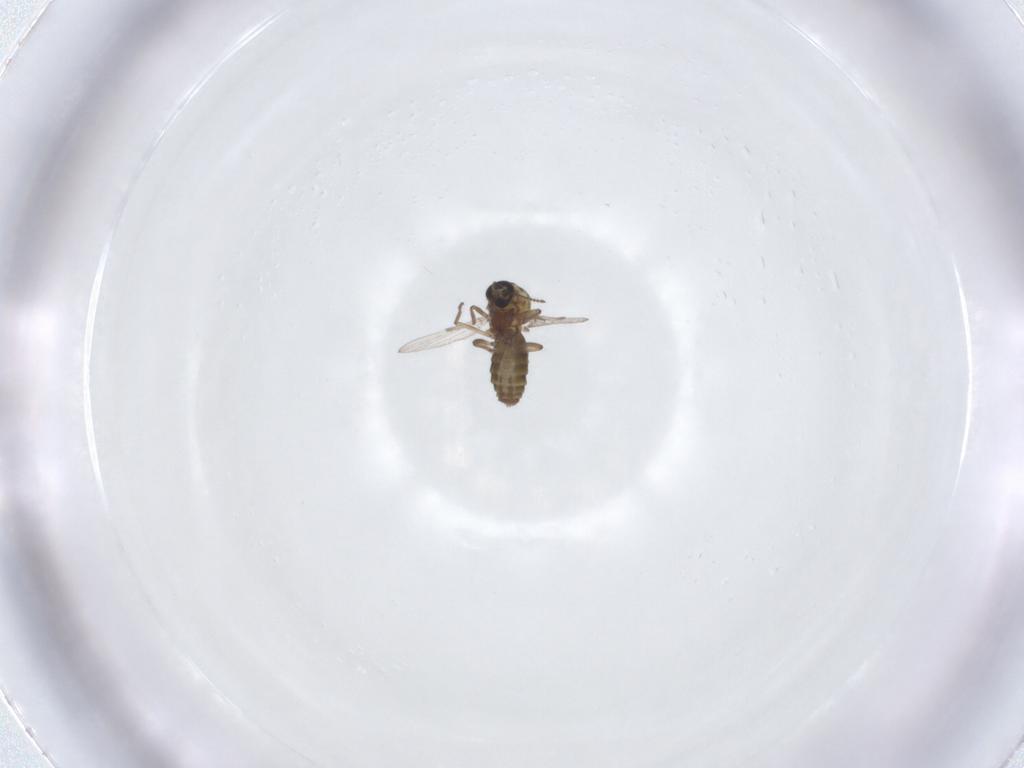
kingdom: Animalia
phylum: Arthropoda
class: Insecta
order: Diptera
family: Ceratopogonidae
